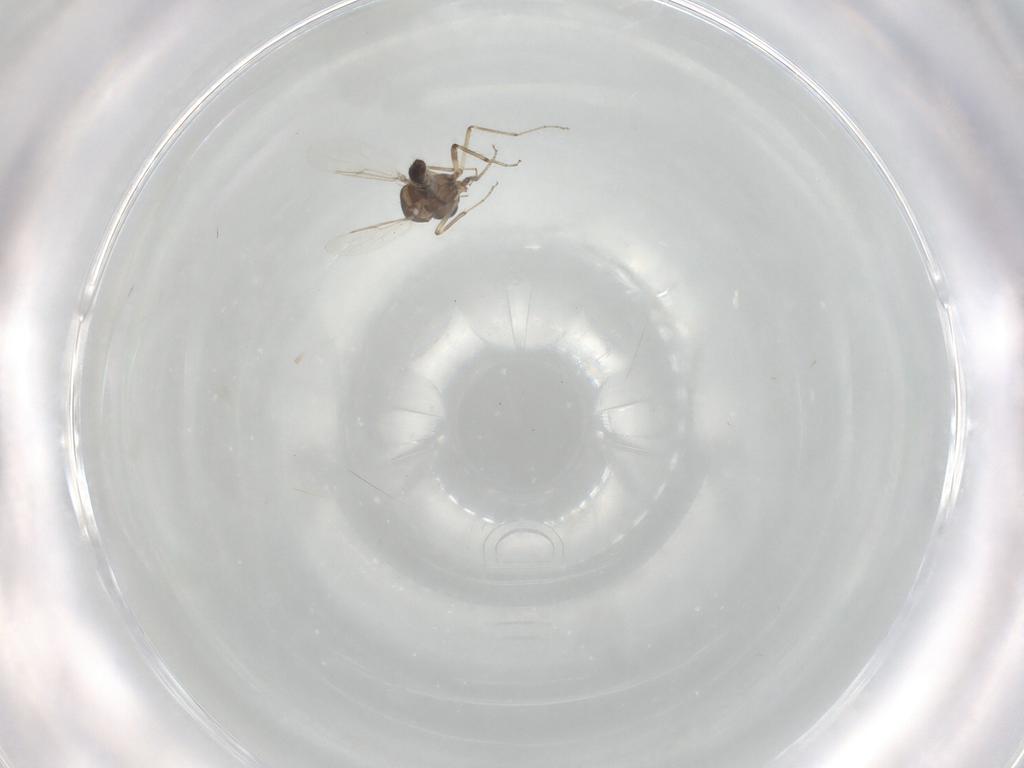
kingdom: Animalia
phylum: Arthropoda
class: Insecta
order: Diptera
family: Ceratopogonidae
